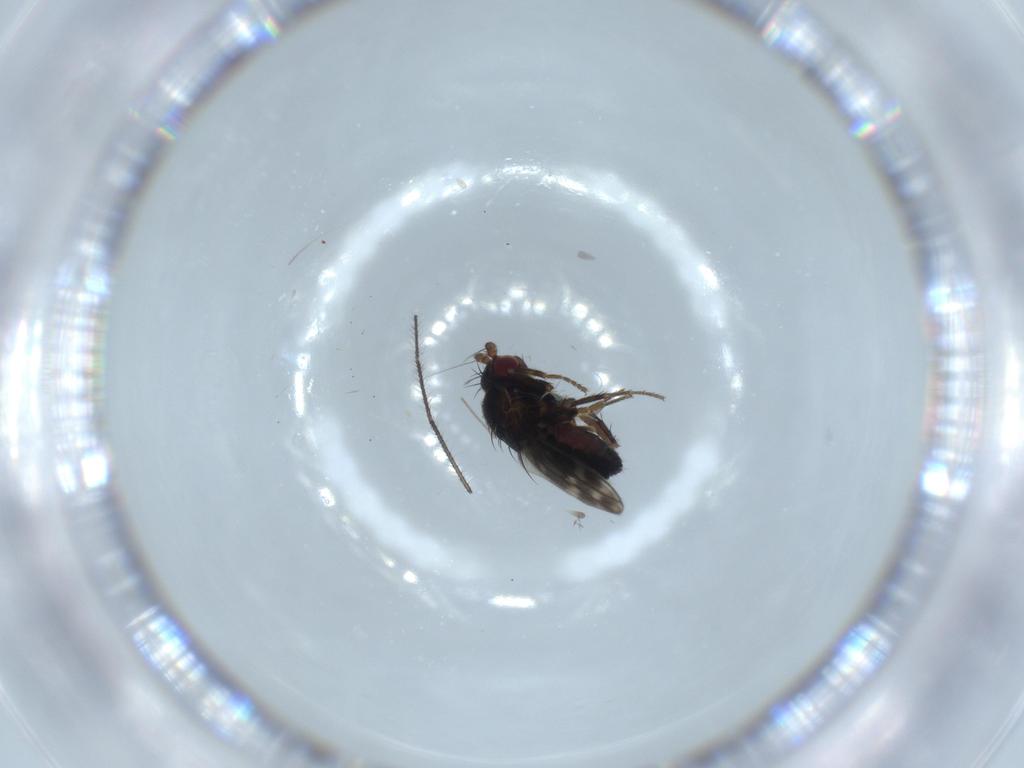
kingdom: Animalia
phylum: Arthropoda
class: Insecta
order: Diptera
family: Sphaeroceridae
